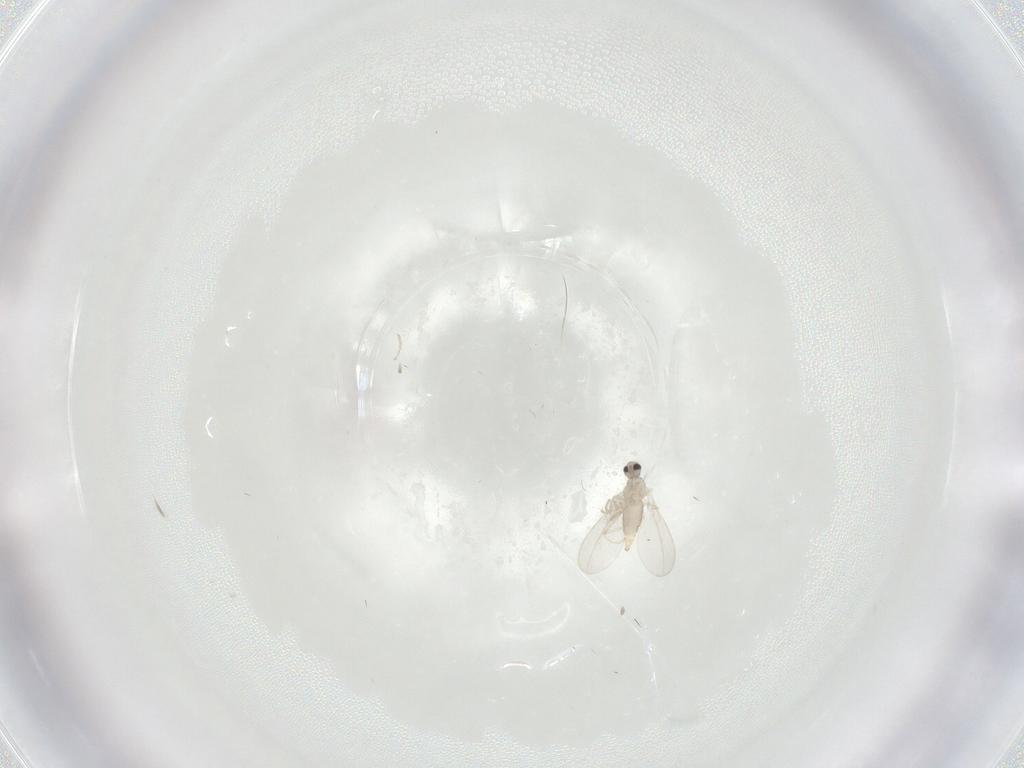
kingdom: Animalia
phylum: Arthropoda
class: Insecta
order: Diptera
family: Cecidomyiidae
